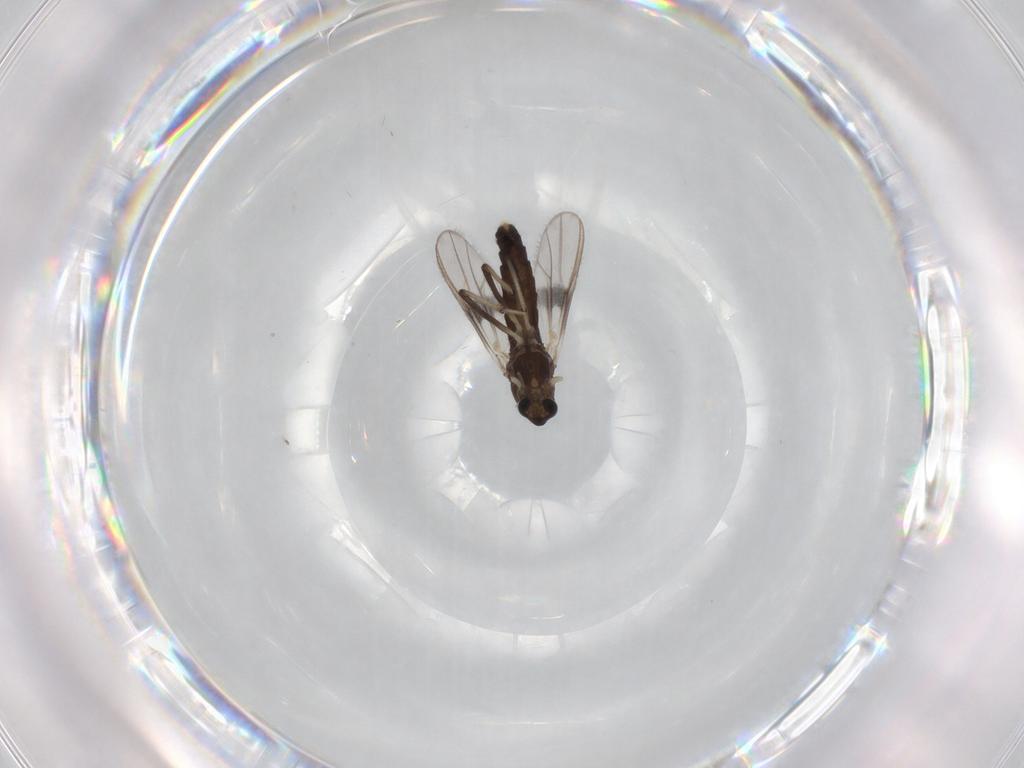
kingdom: Animalia
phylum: Arthropoda
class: Insecta
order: Diptera
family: Chironomidae
